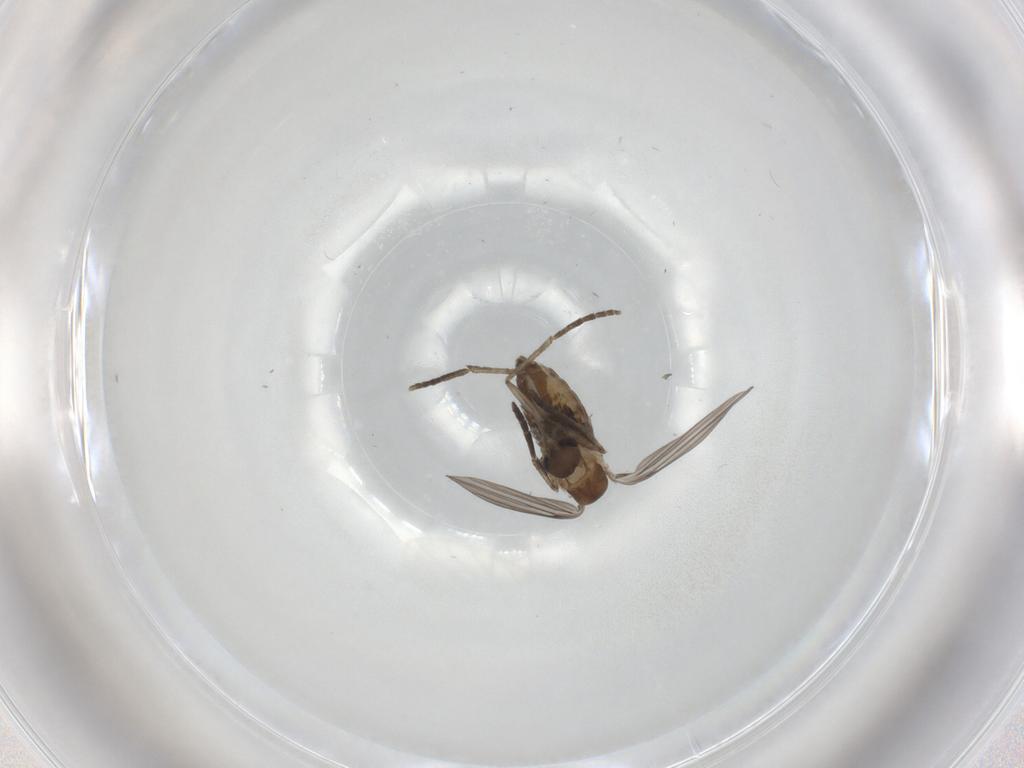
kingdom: Animalia
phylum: Arthropoda
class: Insecta
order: Diptera
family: Psychodidae
